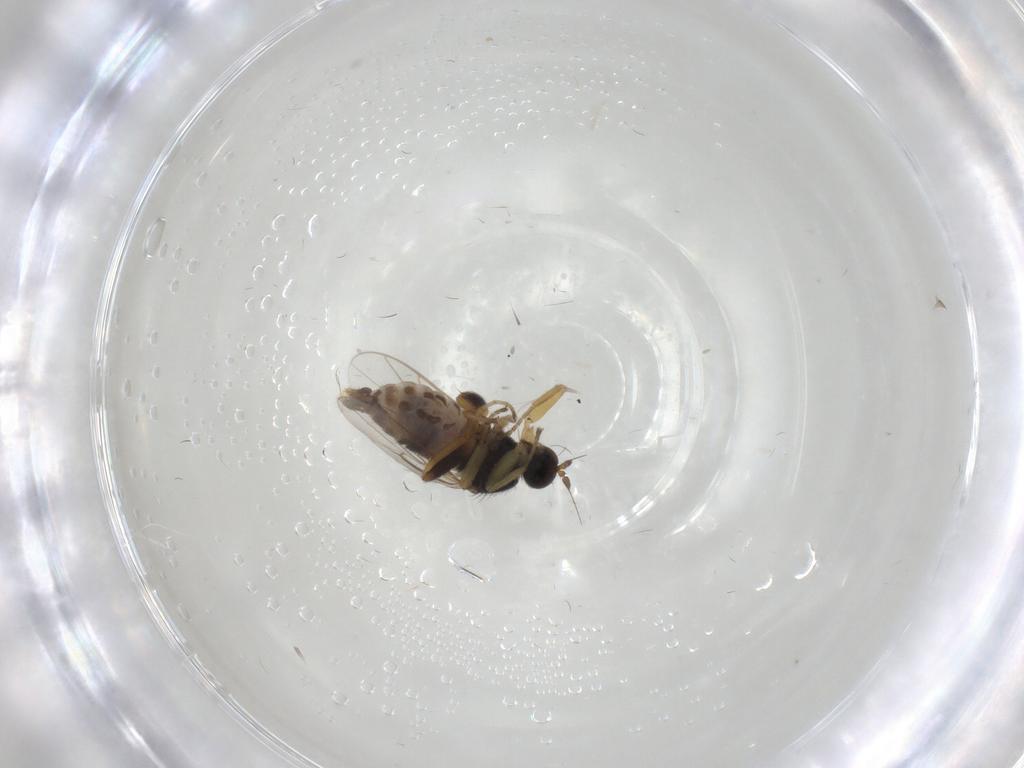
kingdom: Animalia
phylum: Arthropoda
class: Insecta
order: Diptera
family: Hybotidae
